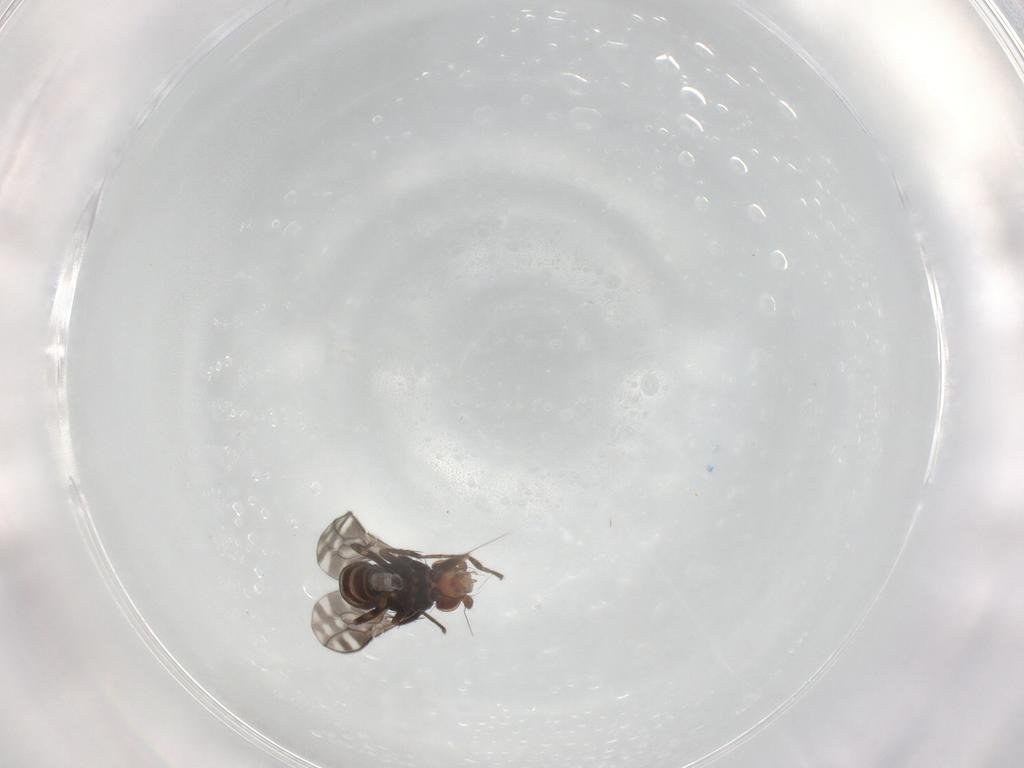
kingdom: Animalia
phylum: Arthropoda
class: Insecta
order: Diptera
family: Sphaeroceridae
